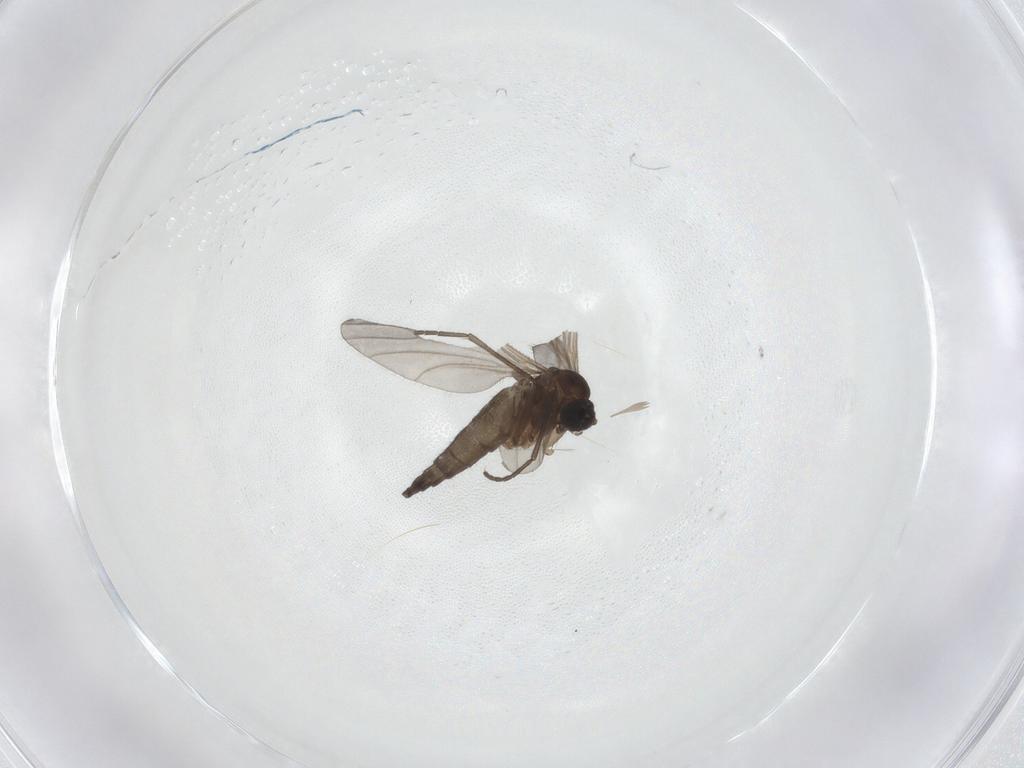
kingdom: Animalia
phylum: Arthropoda
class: Insecta
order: Diptera
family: Sciaridae
